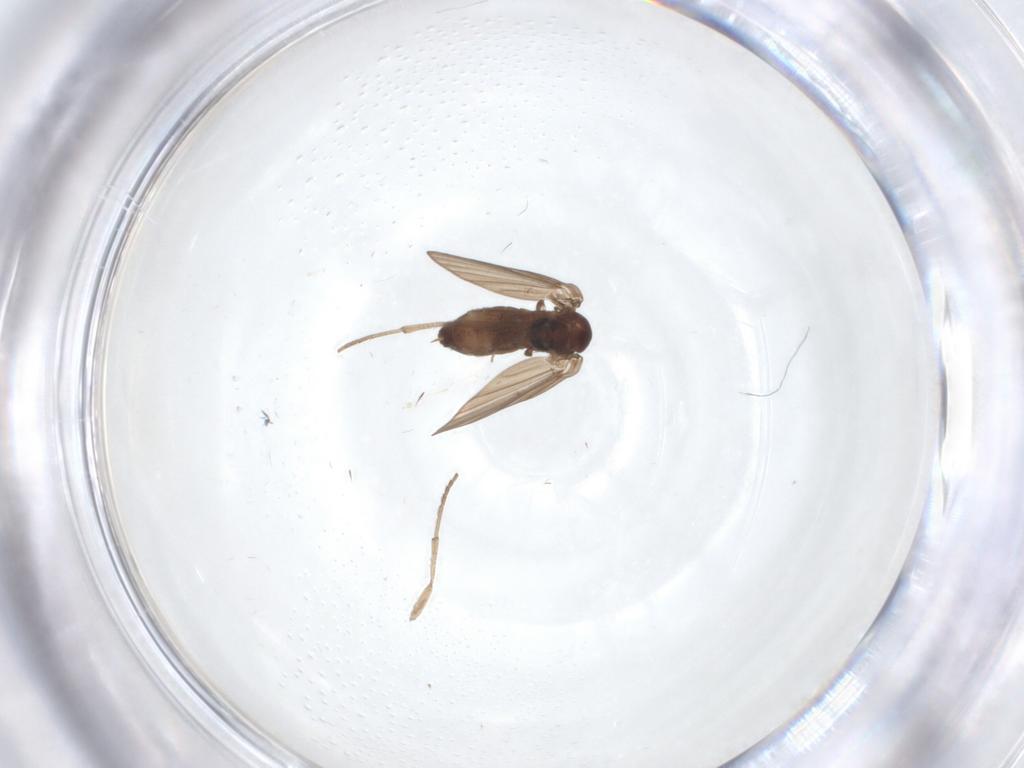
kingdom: Animalia
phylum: Arthropoda
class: Insecta
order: Diptera
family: Psychodidae
